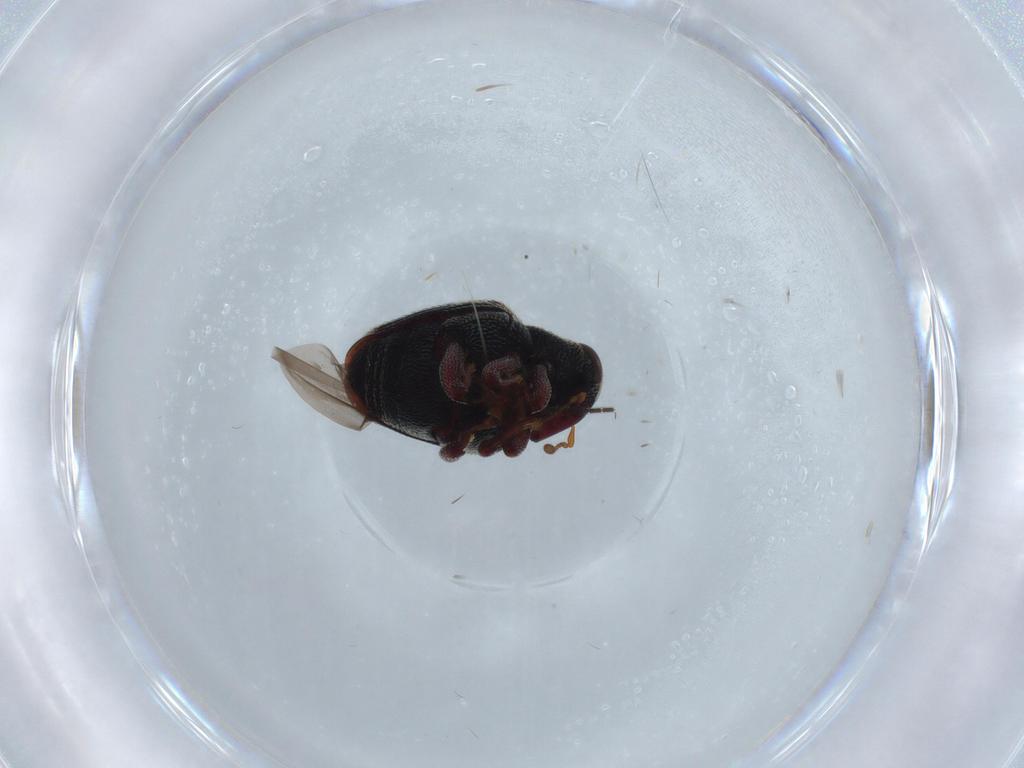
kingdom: Animalia
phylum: Arthropoda
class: Insecta
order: Coleoptera
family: Curculionidae
